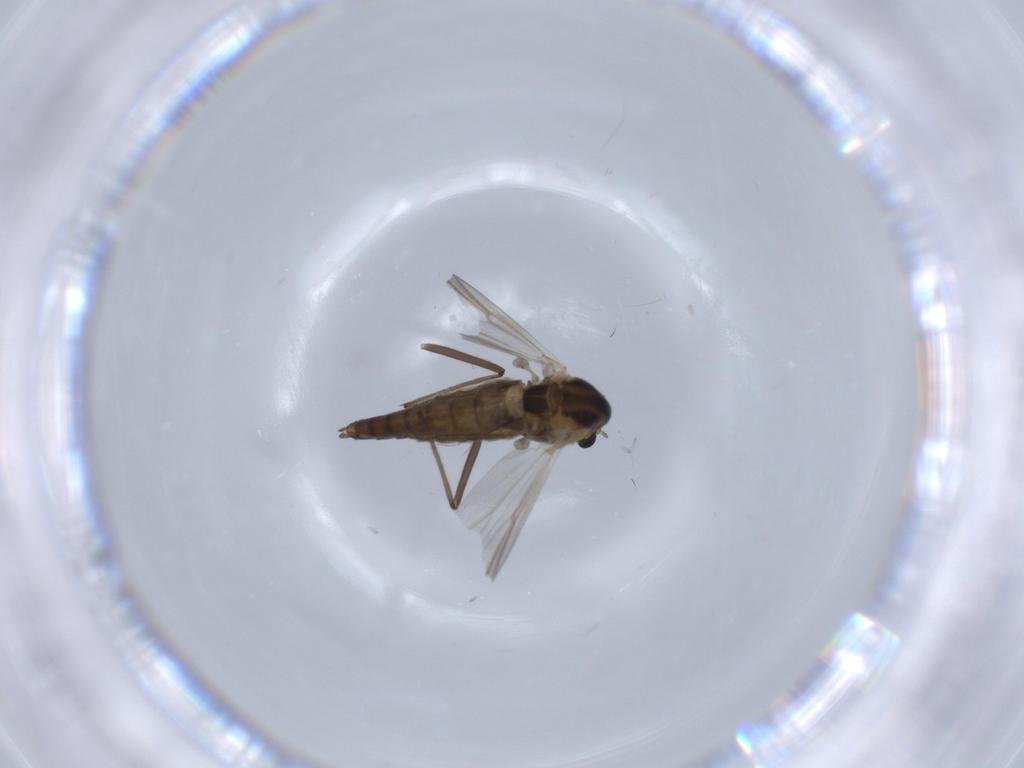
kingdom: Animalia
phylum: Arthropoda
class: Insecta
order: Diptera
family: Chironomidae
